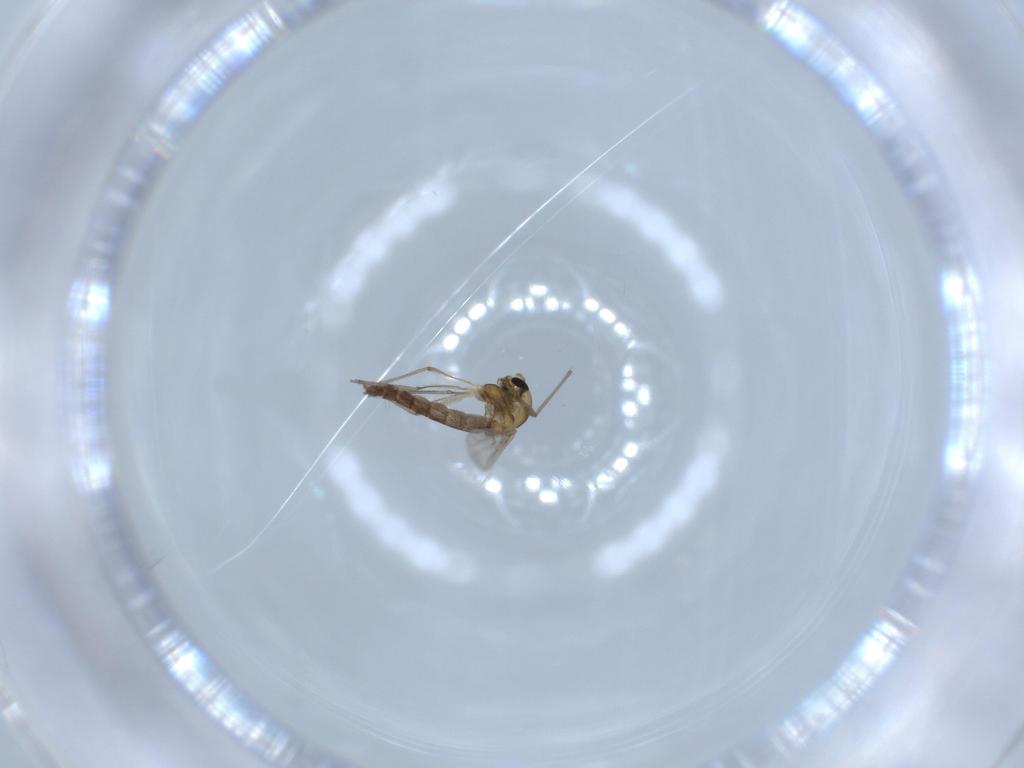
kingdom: Animalia
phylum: Arthropoda
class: Insecta
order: Diptera
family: Chironomidae
